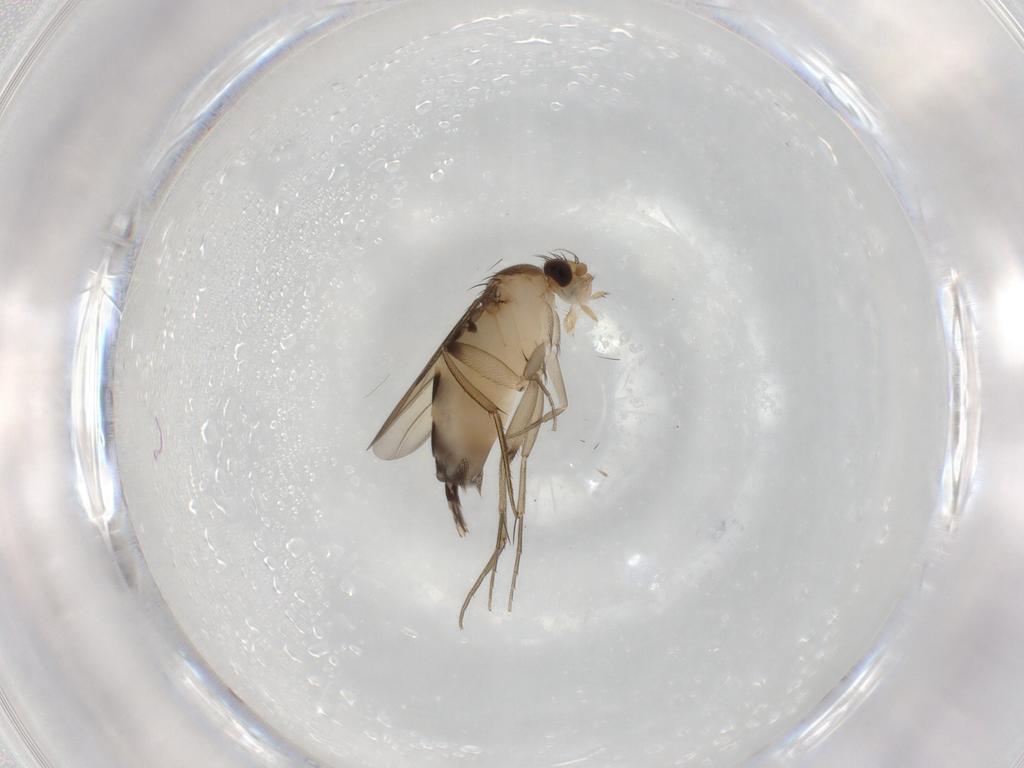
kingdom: Animalia
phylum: Arthropoda
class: Insecta
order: Diptera
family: Phoridae
